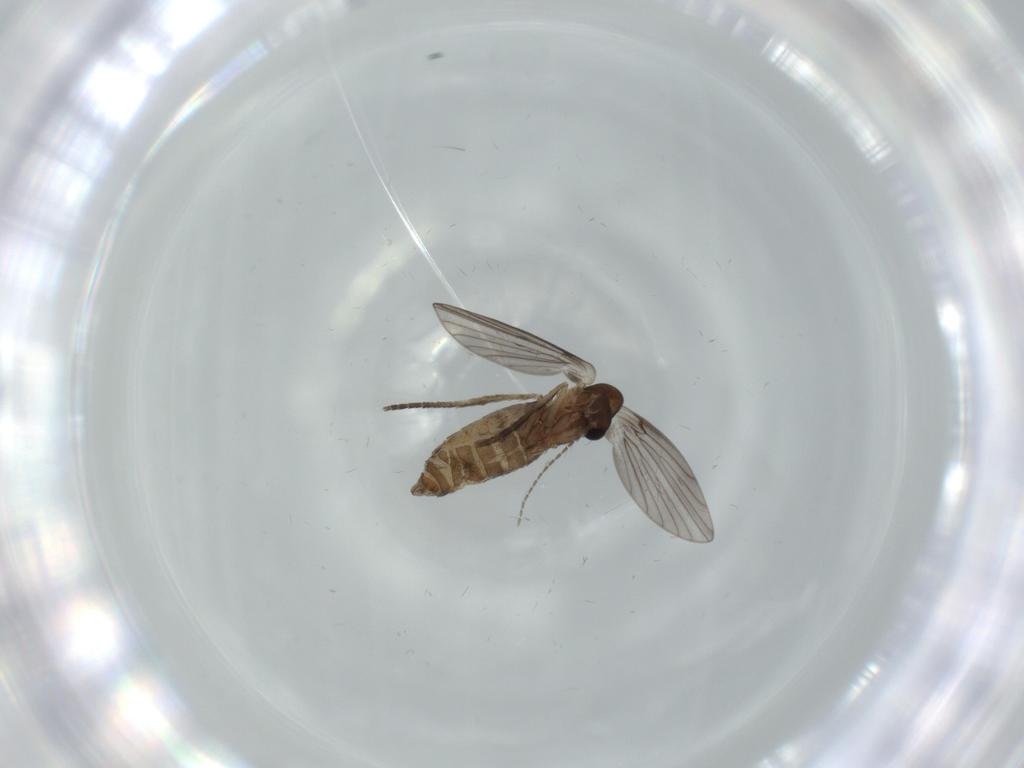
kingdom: Animalia
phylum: Arthropoda
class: Insecta
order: Diptera
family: Psychodidae
